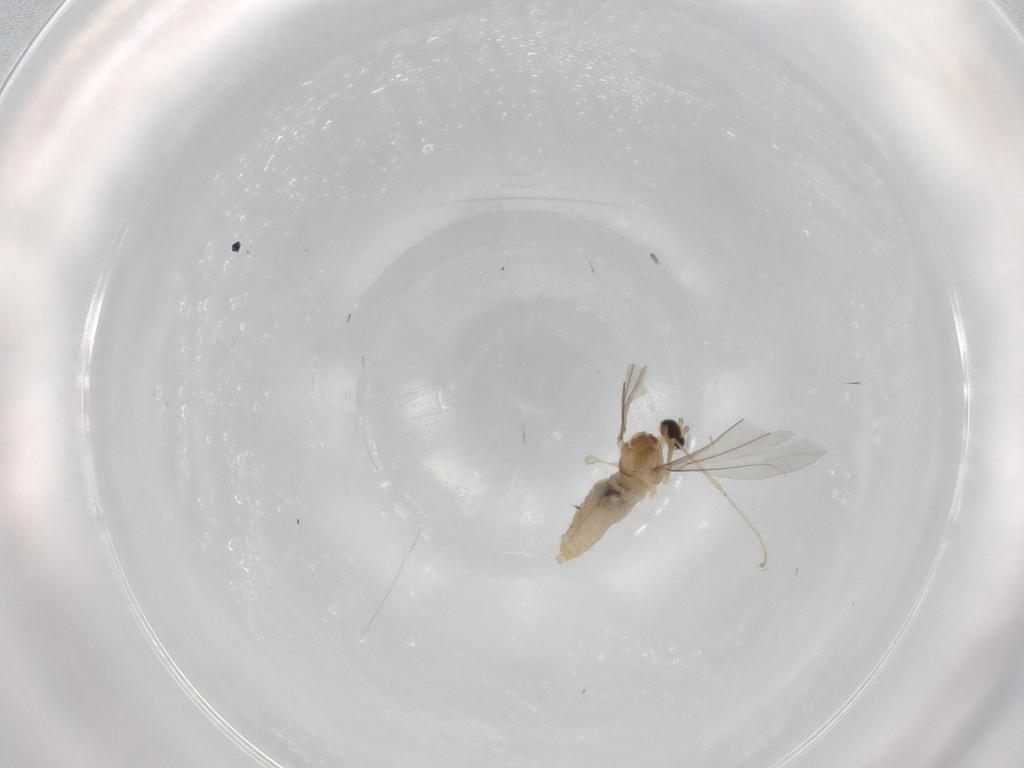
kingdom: Animalia
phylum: Arthropoda
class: Insecta
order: Diptera
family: Cecidomyiidae
